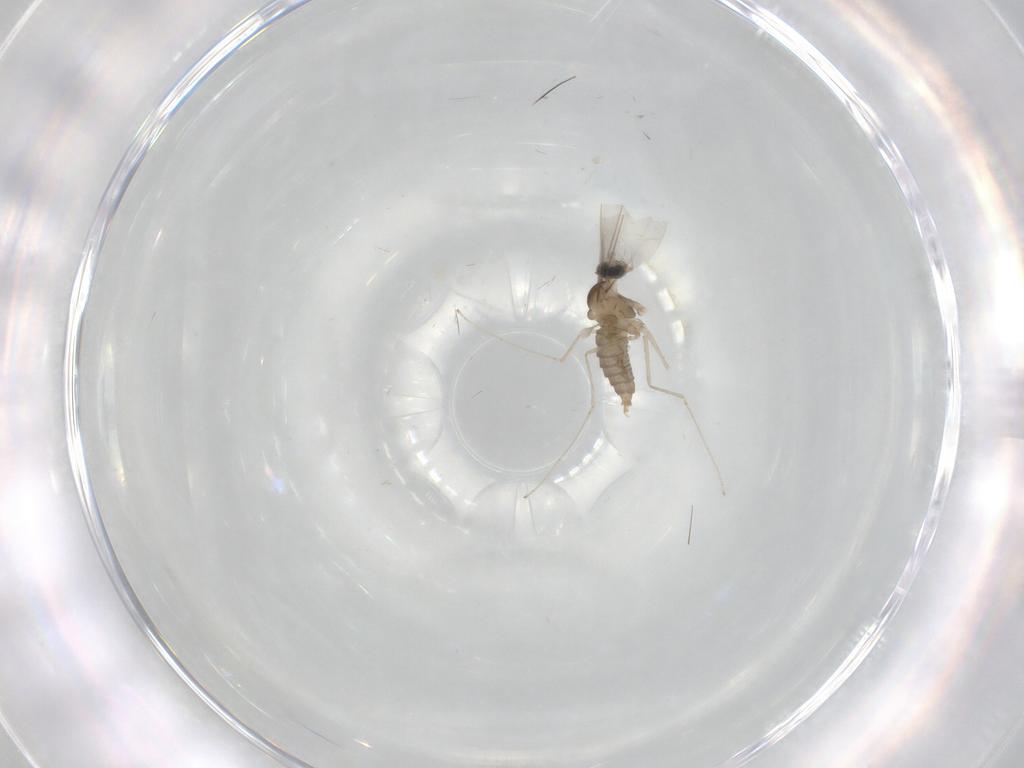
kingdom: Animalia
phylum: Arthropoda
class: Insecta
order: Diptera
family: Cecidomyiidae
